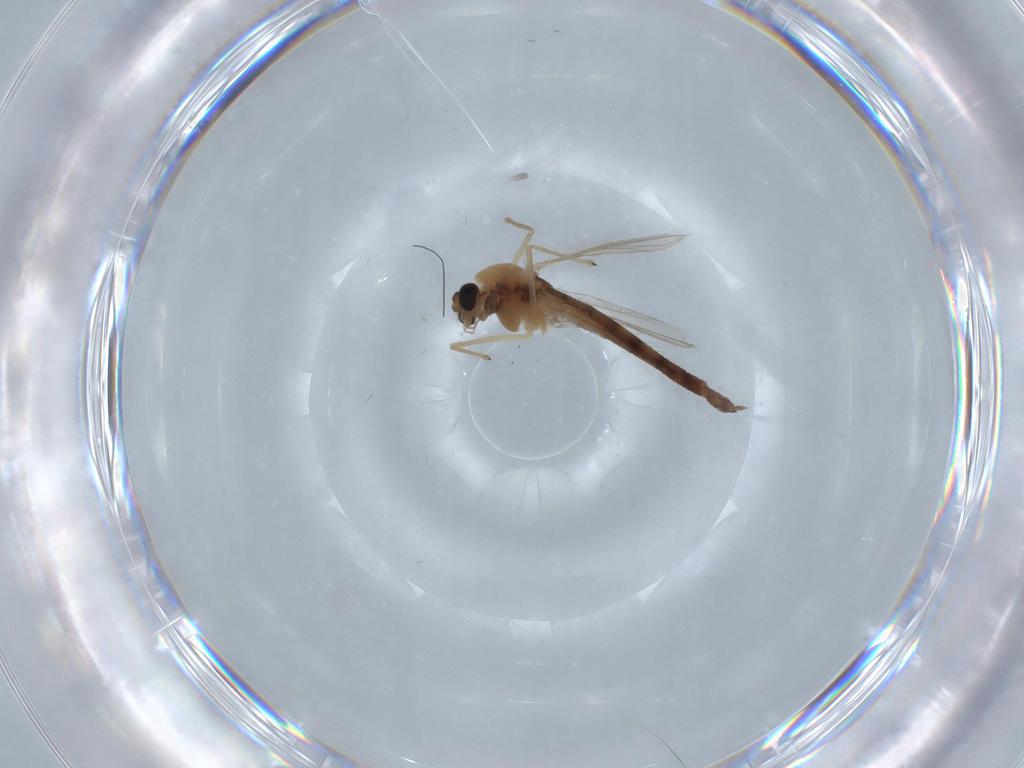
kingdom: Animalia
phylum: Arthropoda
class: Insecta
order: Diptera
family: Chironomidae
